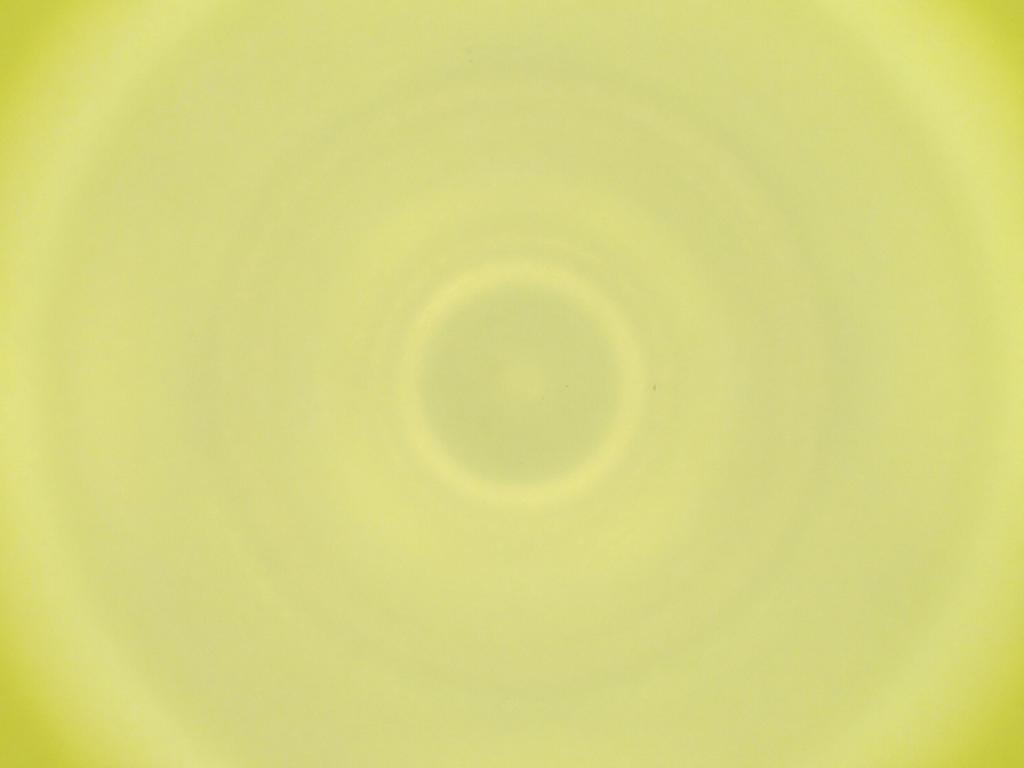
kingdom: Animalia
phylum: Arthropoda
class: Insecta
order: Diptera
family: Cecidomyiidae
